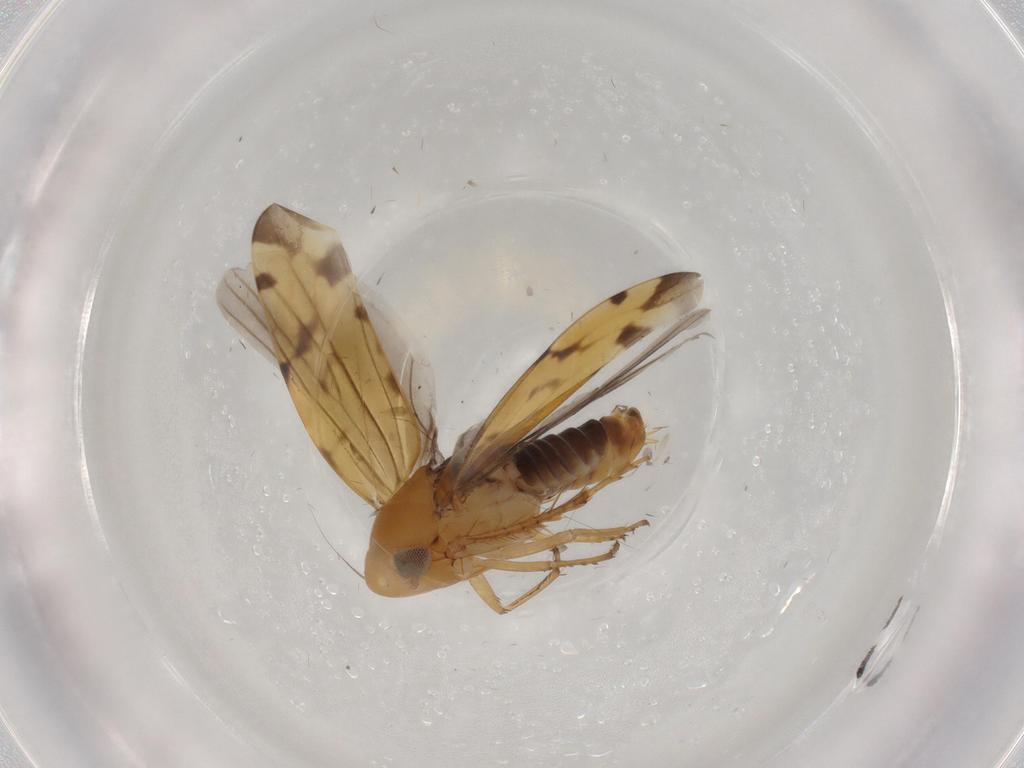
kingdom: Animalia
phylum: Arthropoda
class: Insecta
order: Hemiptera
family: Cicadellidae
